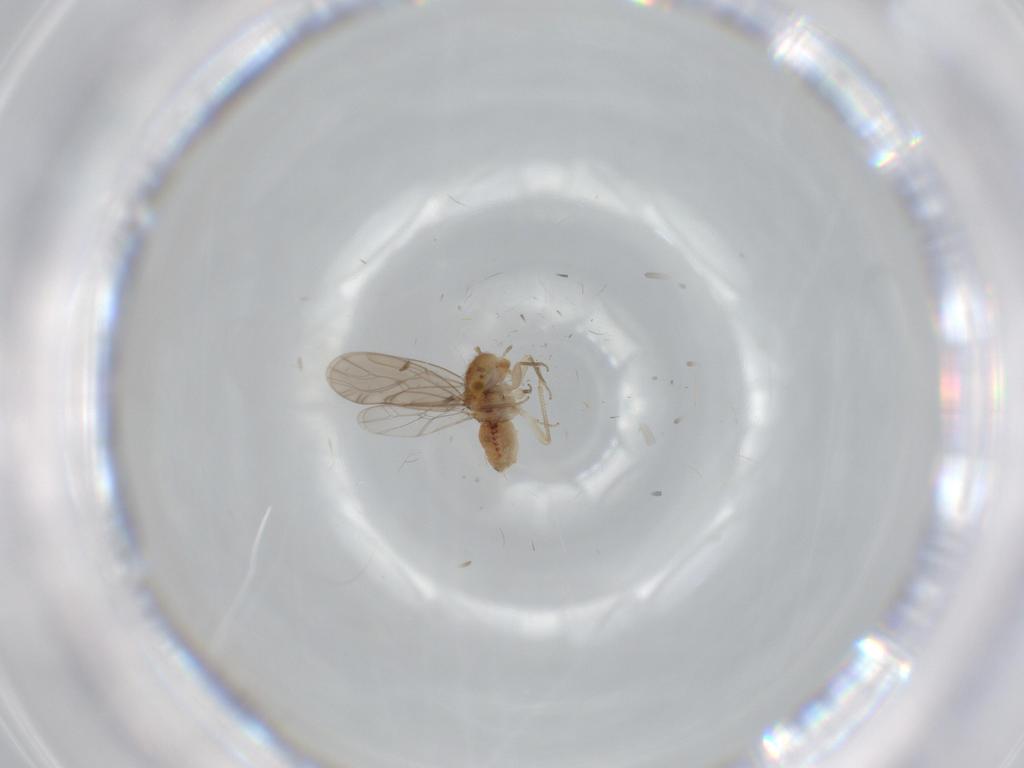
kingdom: Animalia
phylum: Arthropoda
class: Insecta
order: Psocodea
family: Ectopsocidae
